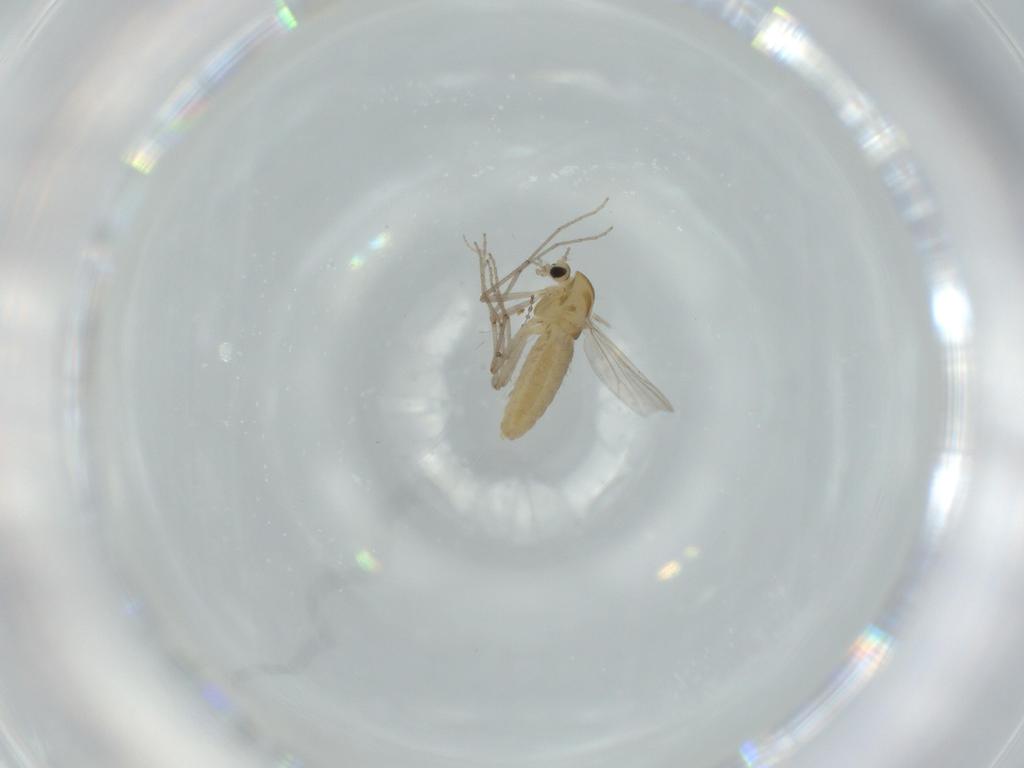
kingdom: Animalia
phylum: Arthropoda
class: Insecta
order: Diptera
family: Chironomidae
